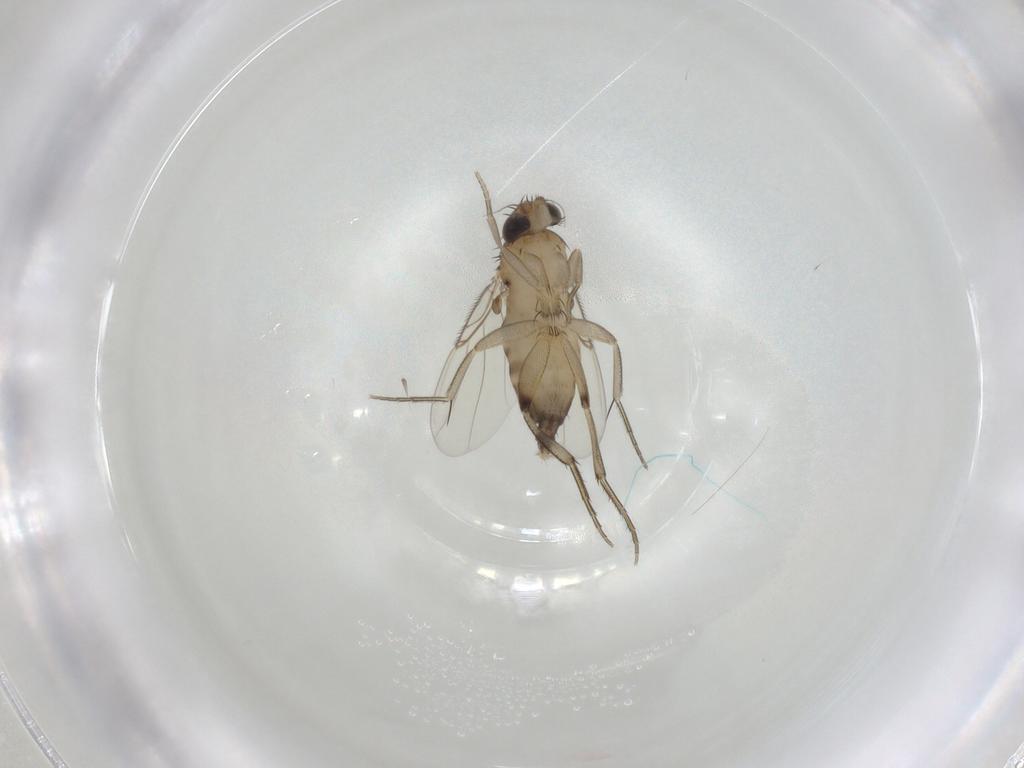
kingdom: Animalia
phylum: Arthropoda
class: Insecta
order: Diptera
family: Phoridae
